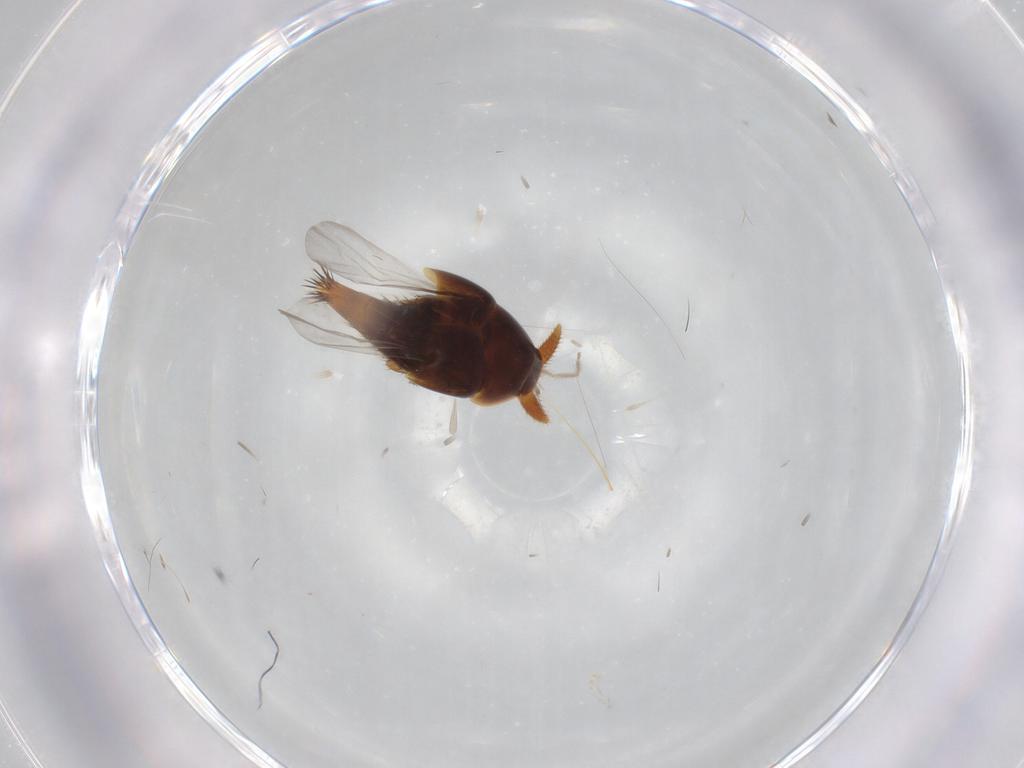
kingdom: Animalia
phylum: Arthropoda
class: Insecta
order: Coleoptera
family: Staphylinidae
